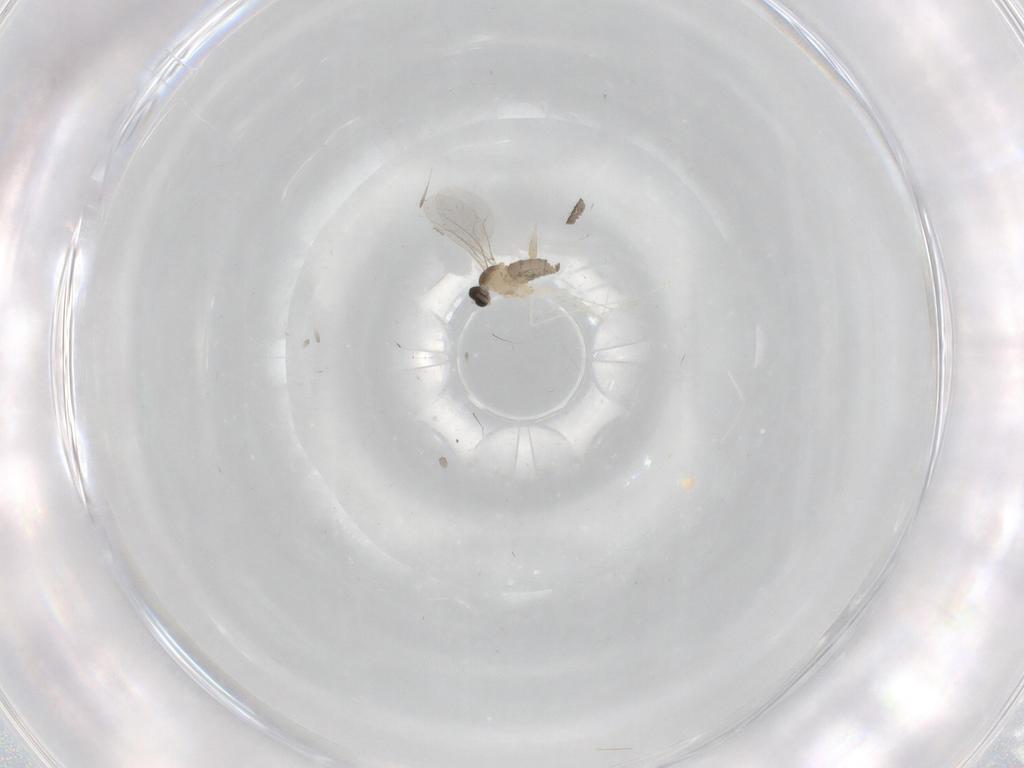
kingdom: Animalia
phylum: Arthropoda
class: Insecta
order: Diptera
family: Cecidomyiidae
